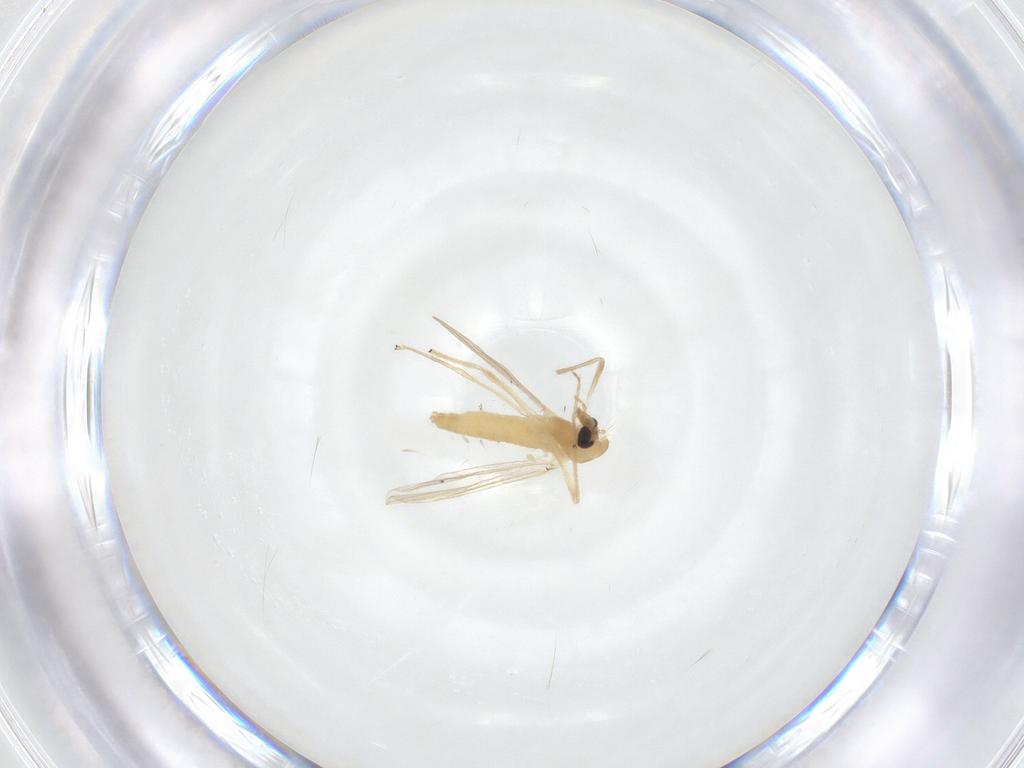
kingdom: Animalia
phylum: Arthropoda
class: Insecta
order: Diptera
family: Chironomidae
